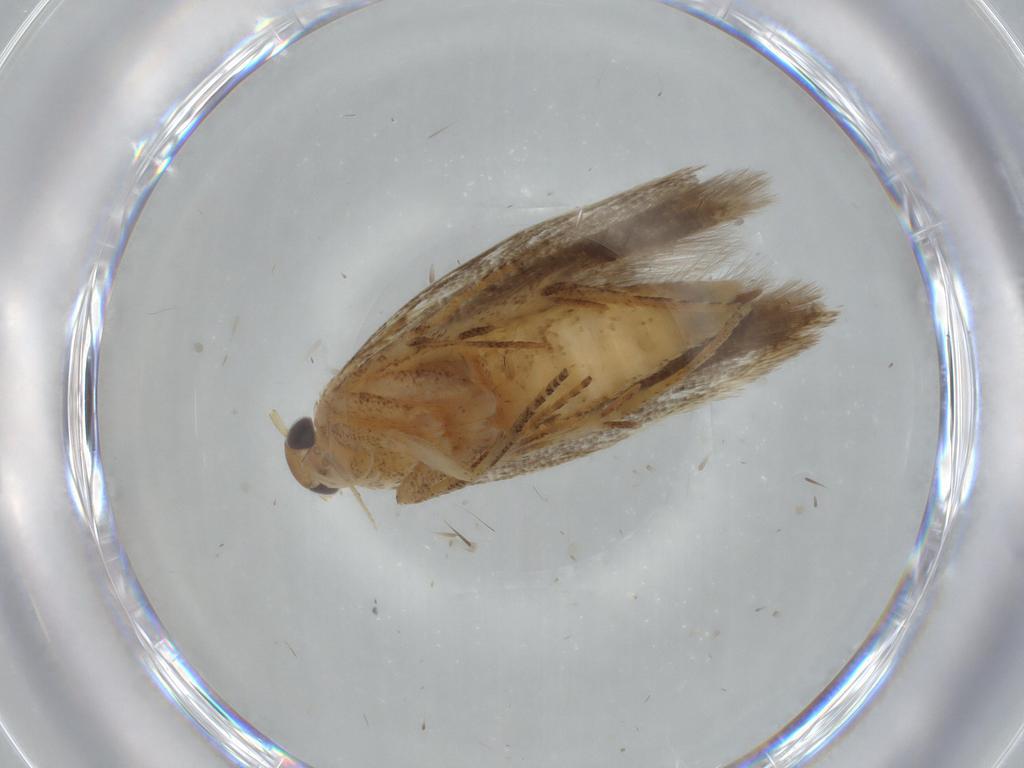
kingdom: Animalia
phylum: Arthropoda
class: Insecta
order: Lepidoptera
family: Gelechiidae
